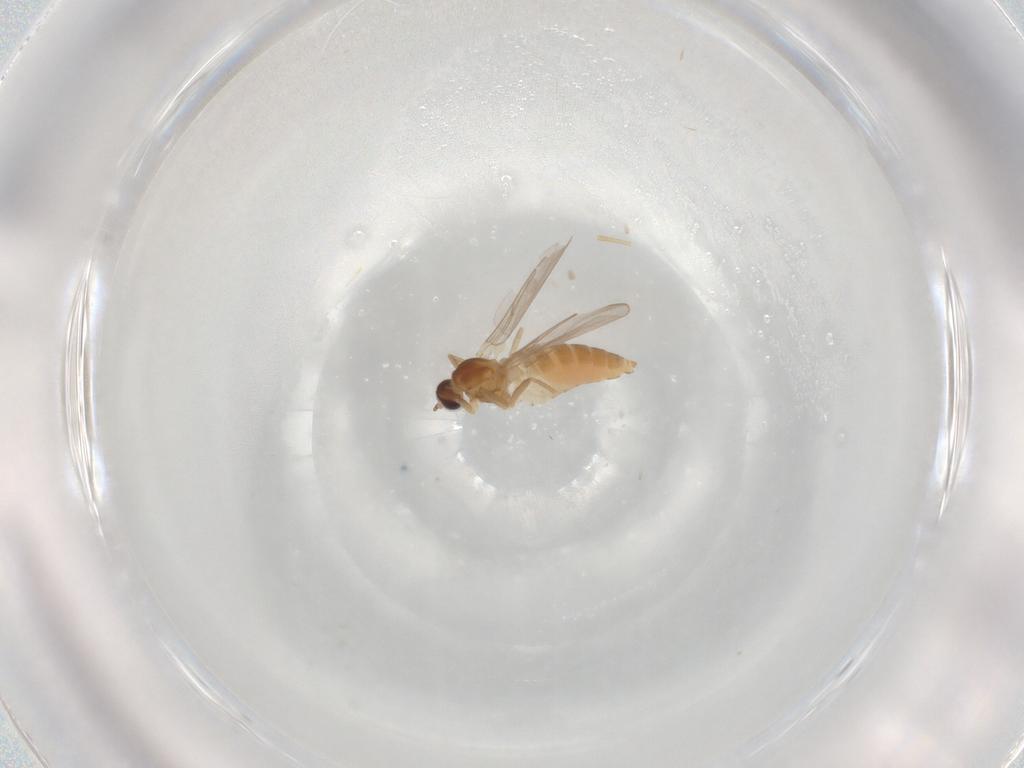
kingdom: Animalia
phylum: Arthropoda
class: Insecta
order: Diptera
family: Cecidomyiidae
